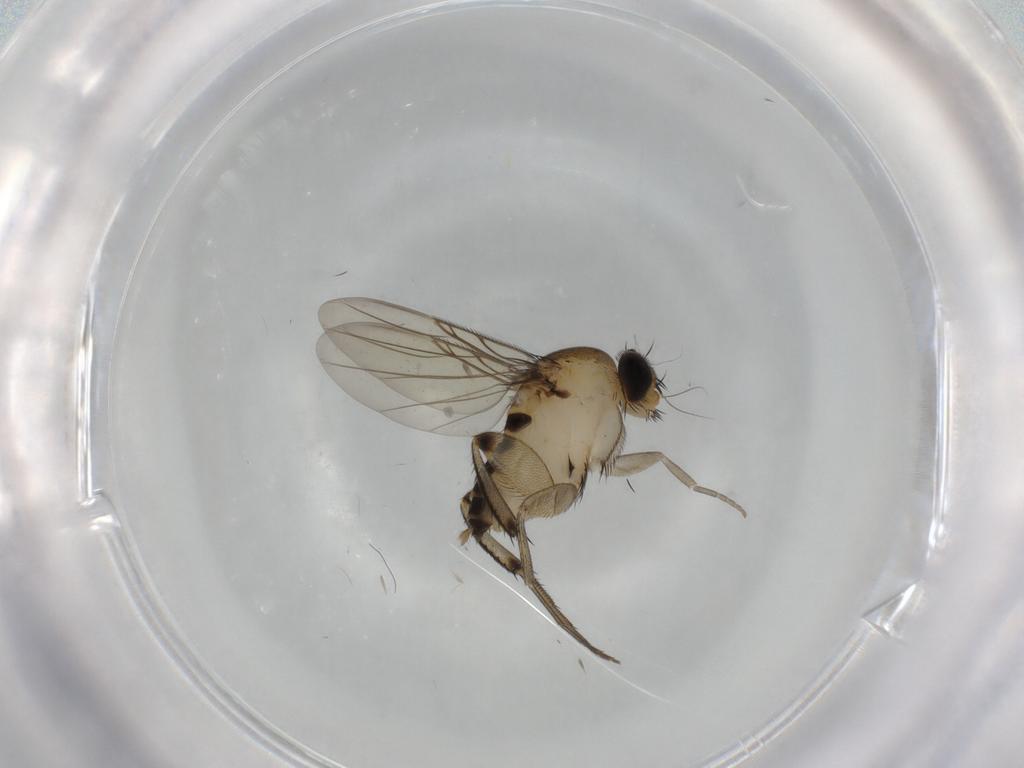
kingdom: Animalia
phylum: Arthropoda
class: Insecta
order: Diptera
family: Phoridae
